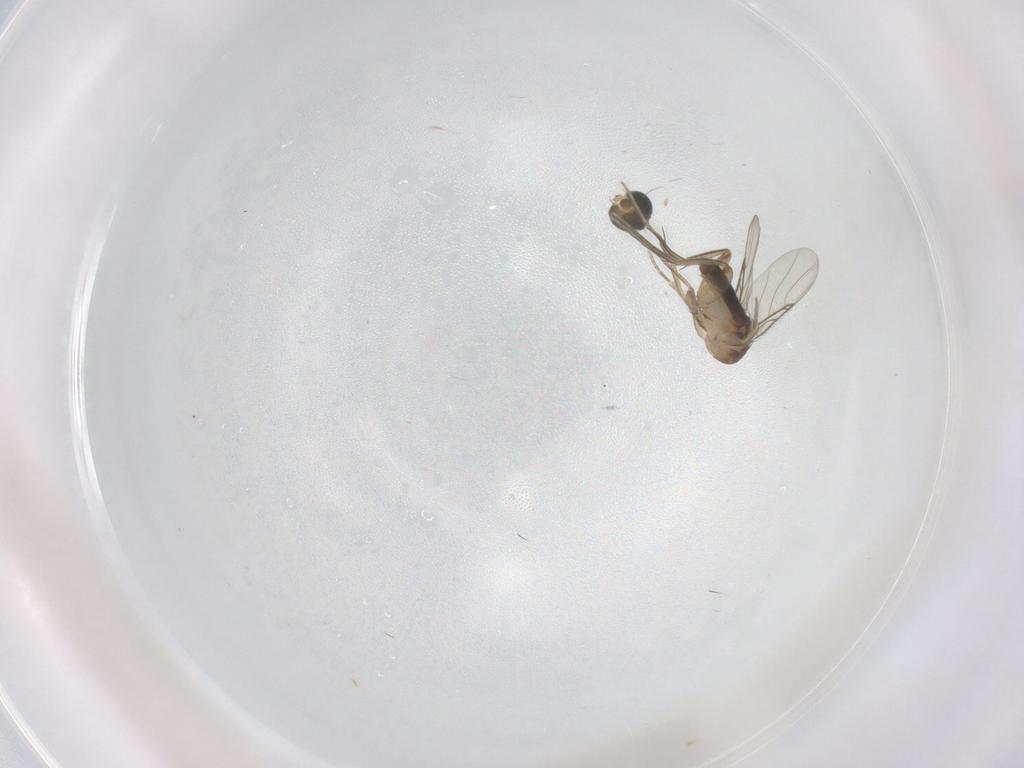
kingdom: Animalia
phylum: Arthropoda
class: Insecta
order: Diptera
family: Phoridae
